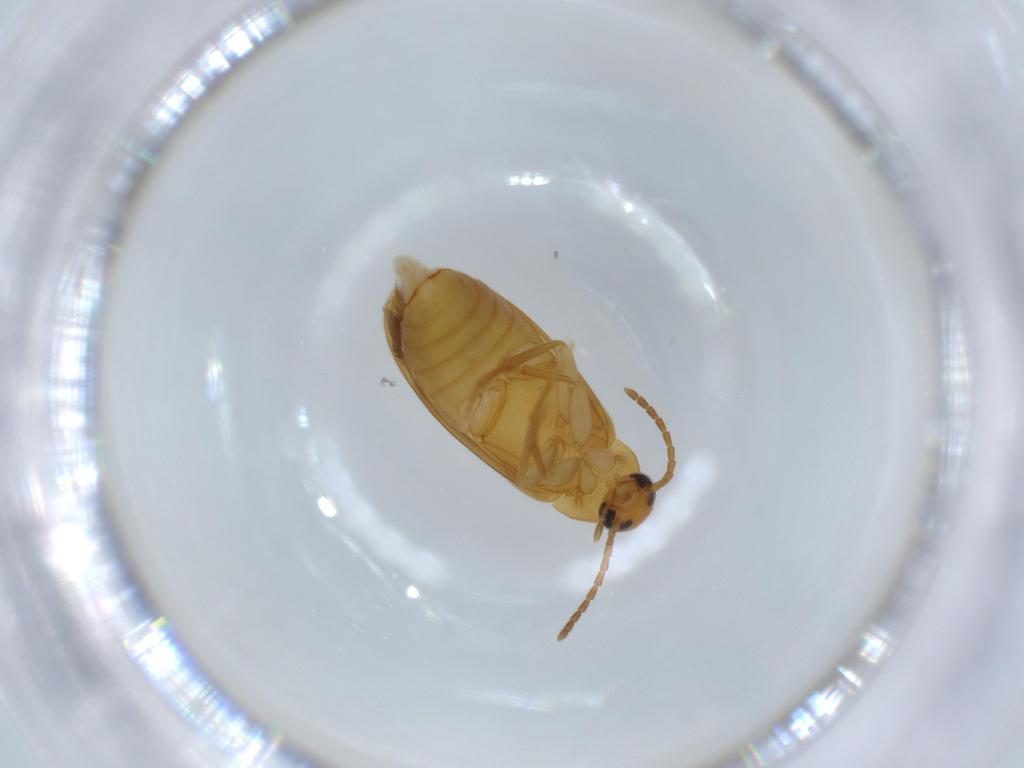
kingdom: Animalia
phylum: Arthropoda
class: Insecta
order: Coleoptera
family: Scraptiidae
